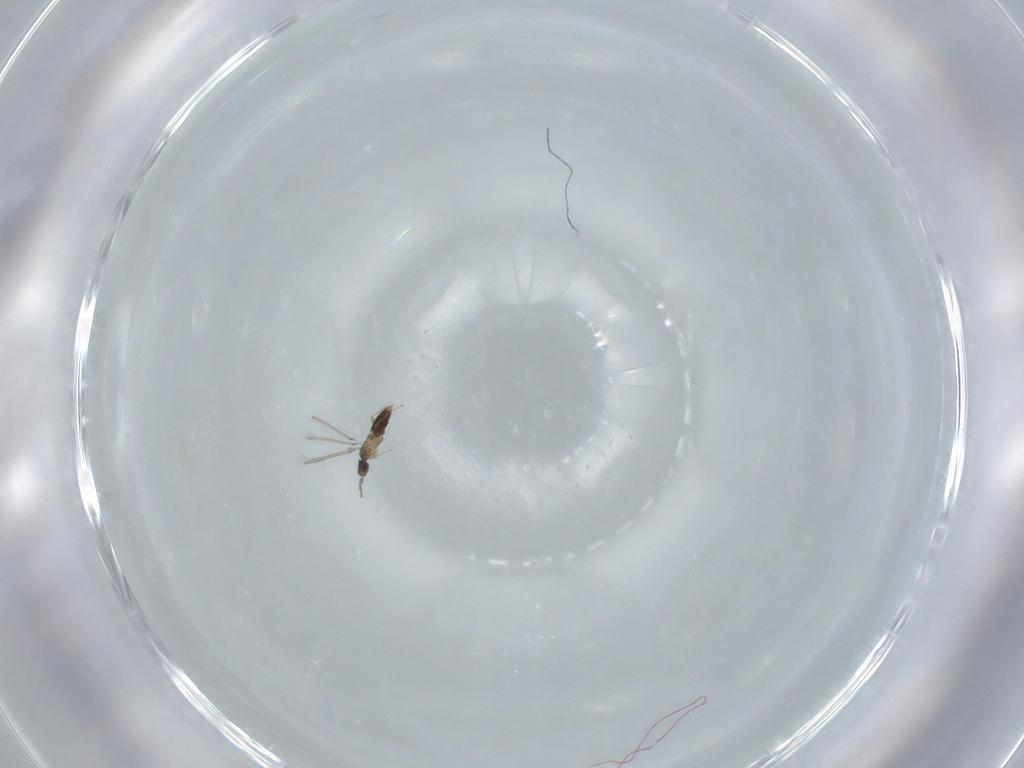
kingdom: Animalia
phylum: Arthropoda
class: Insecta
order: Hymenoptera
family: Mymaridae
